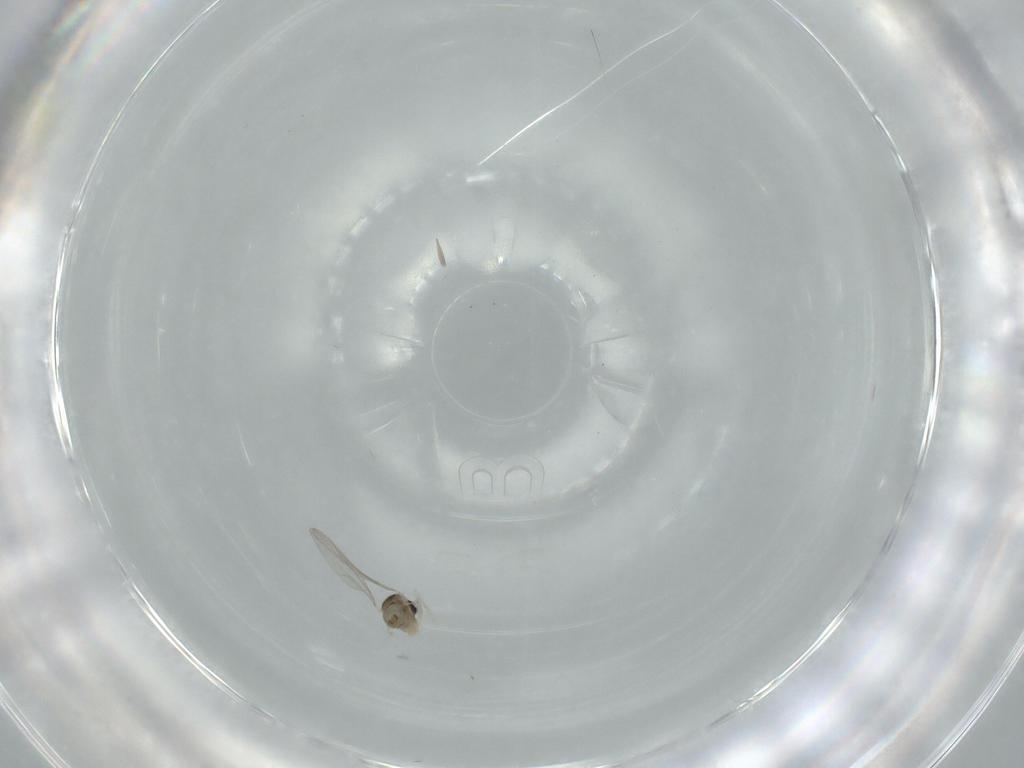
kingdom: Animalia
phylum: Arthropoda
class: Insecta
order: Diptera
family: Cecidomyiidae
